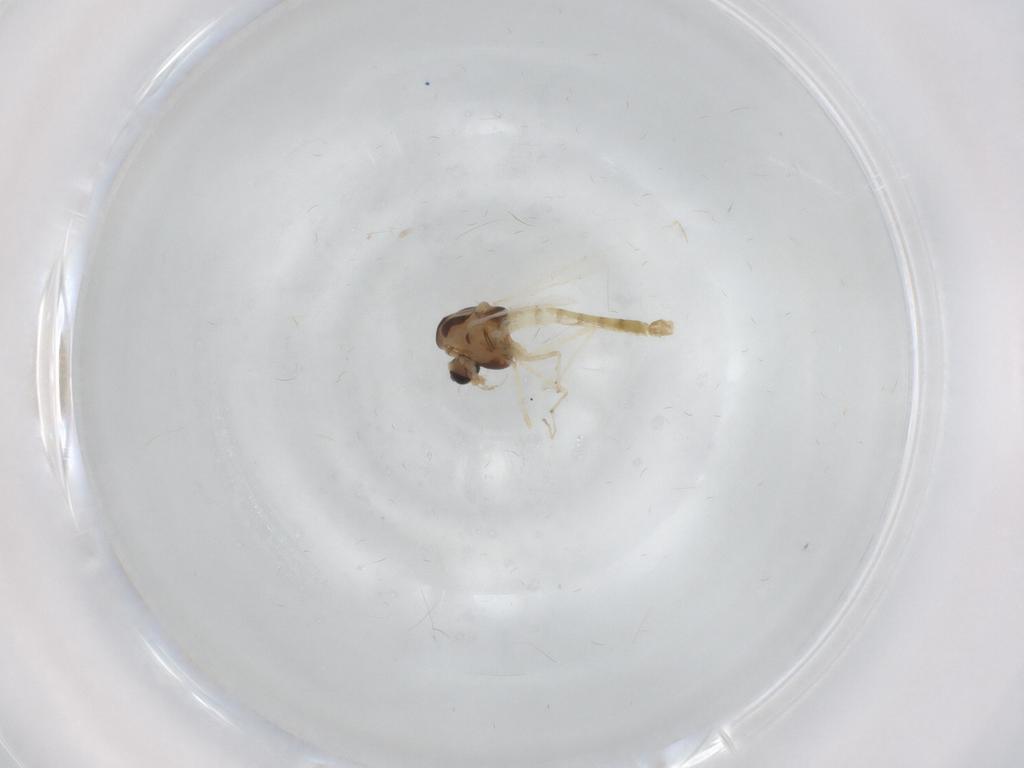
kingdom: Animalia
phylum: Arthropoda
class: Insecta
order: Diptera
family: Chironomidae
